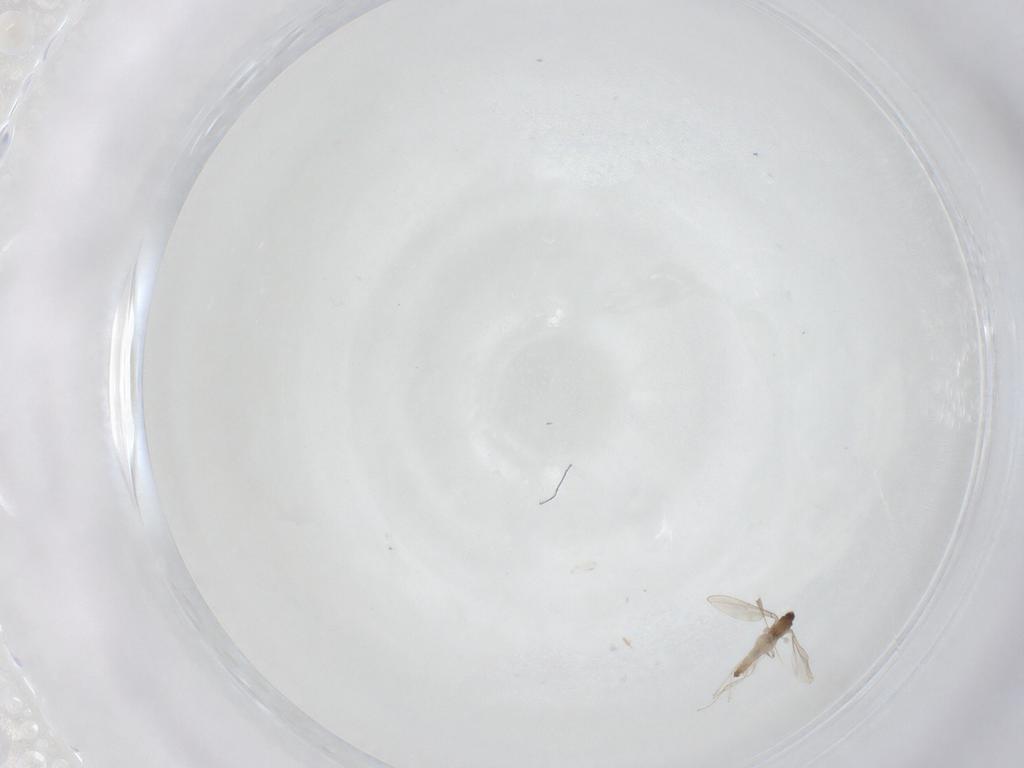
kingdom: Animalia
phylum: Arthropoda
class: Insecta
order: Diptera
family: Cecidomyiidae
